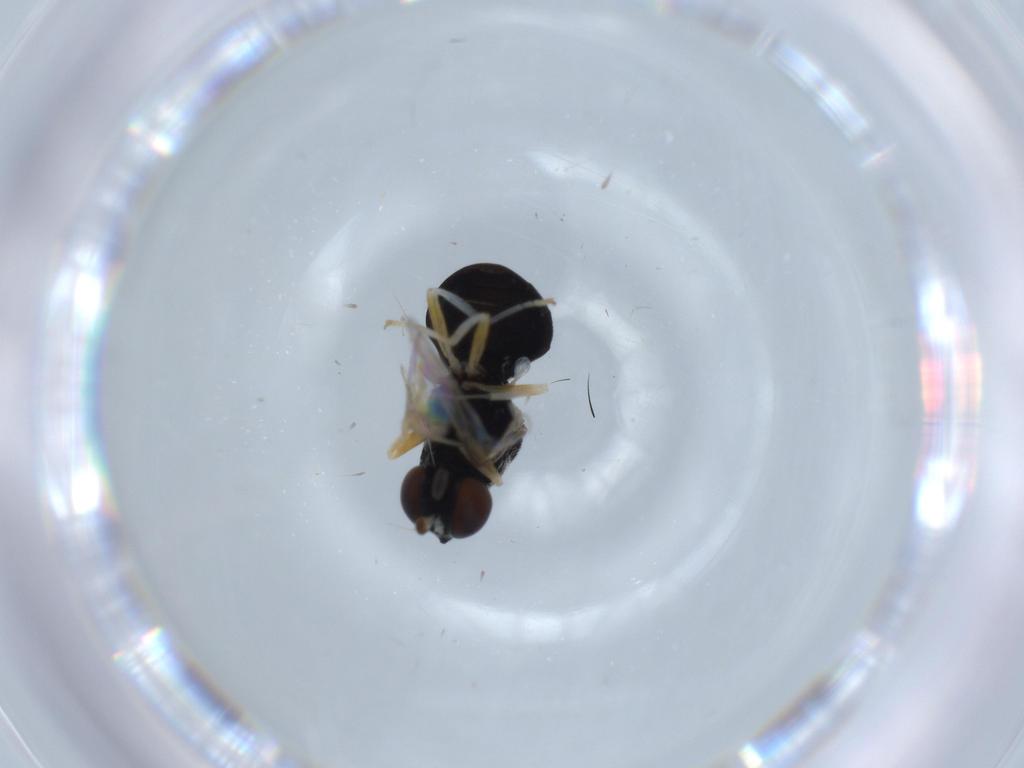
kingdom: Animalia
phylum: Arthropoda
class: Insecta
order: Diptera
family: Stratiomyidae
